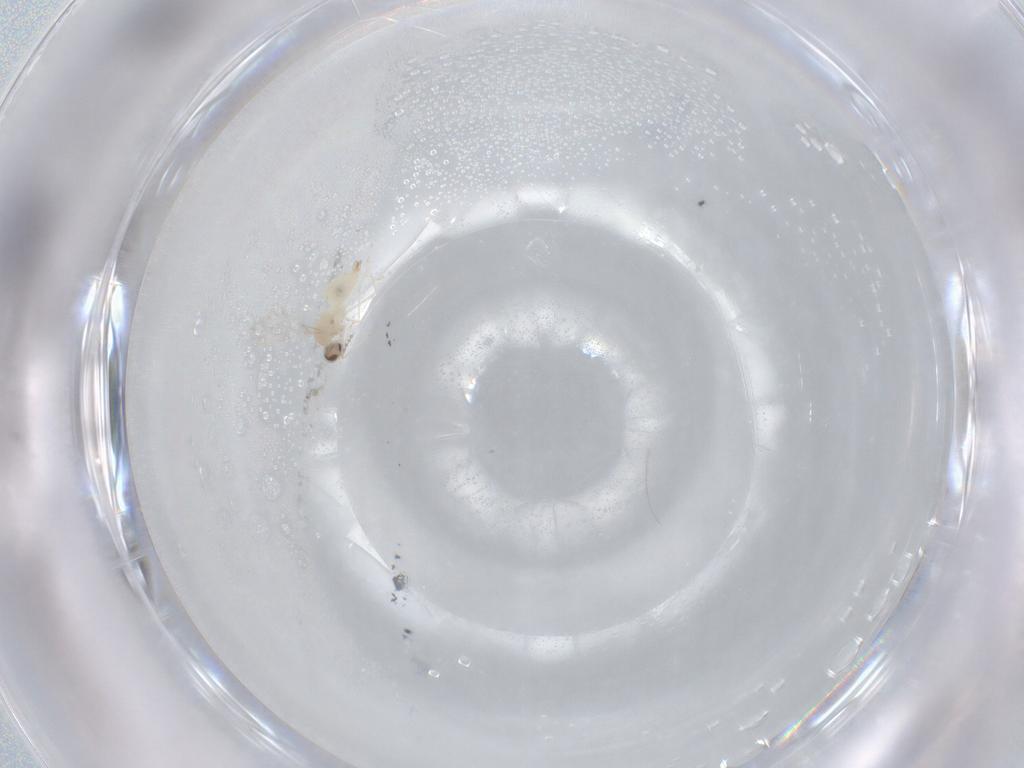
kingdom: Animalia
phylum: Arthropoda
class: Insecta
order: Diptera
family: Cecidomyiidae
